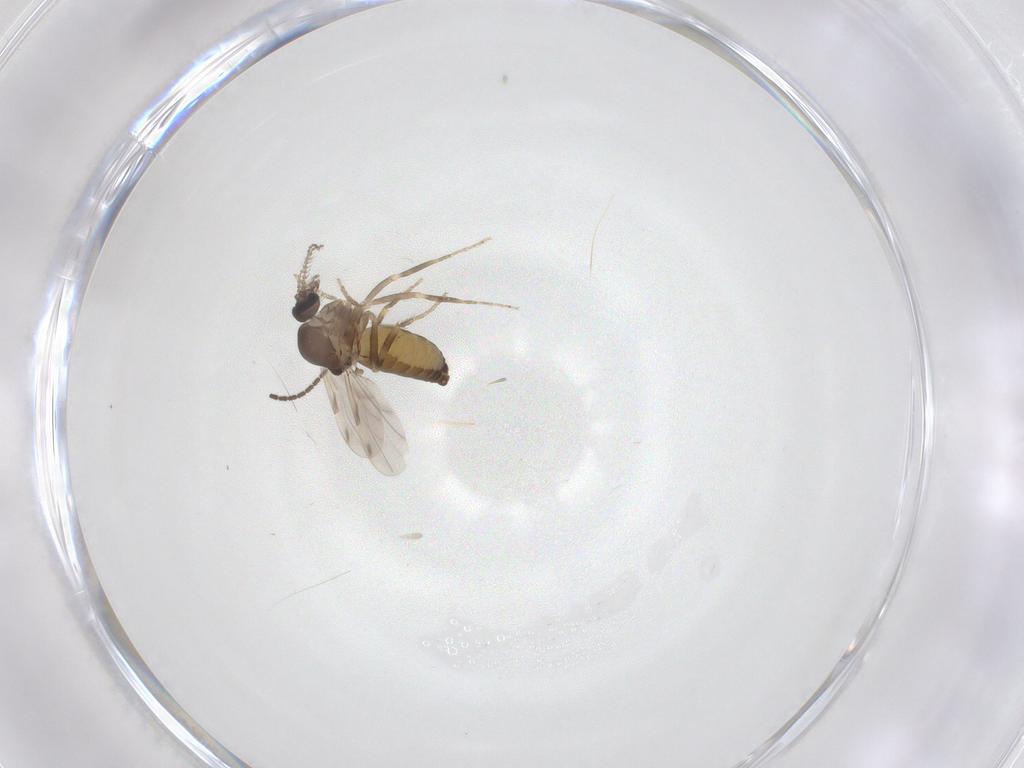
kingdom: Animalia
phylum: Arthropoda
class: Insecta
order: Diptera
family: Ceratopogonidae
